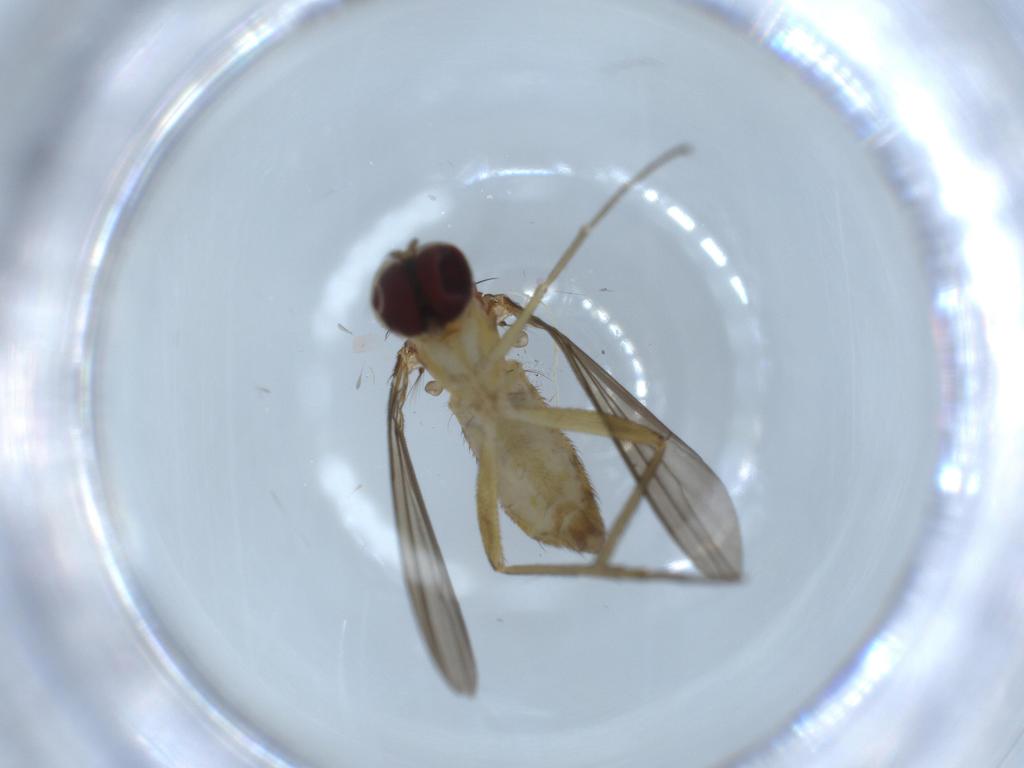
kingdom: Animalia
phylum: Arthropoda
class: Insecta
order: Diptera
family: Dolichopodidae
